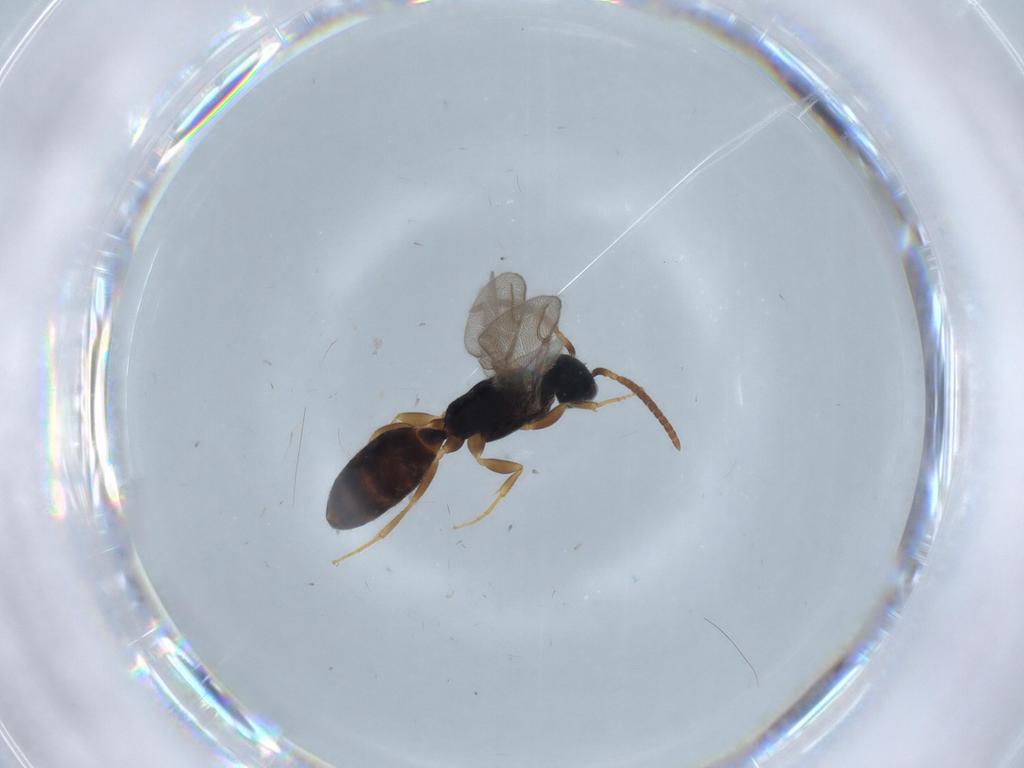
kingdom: Animalia
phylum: Arthropoda
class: Insecta
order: Hymenoptera
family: Bethylidae
